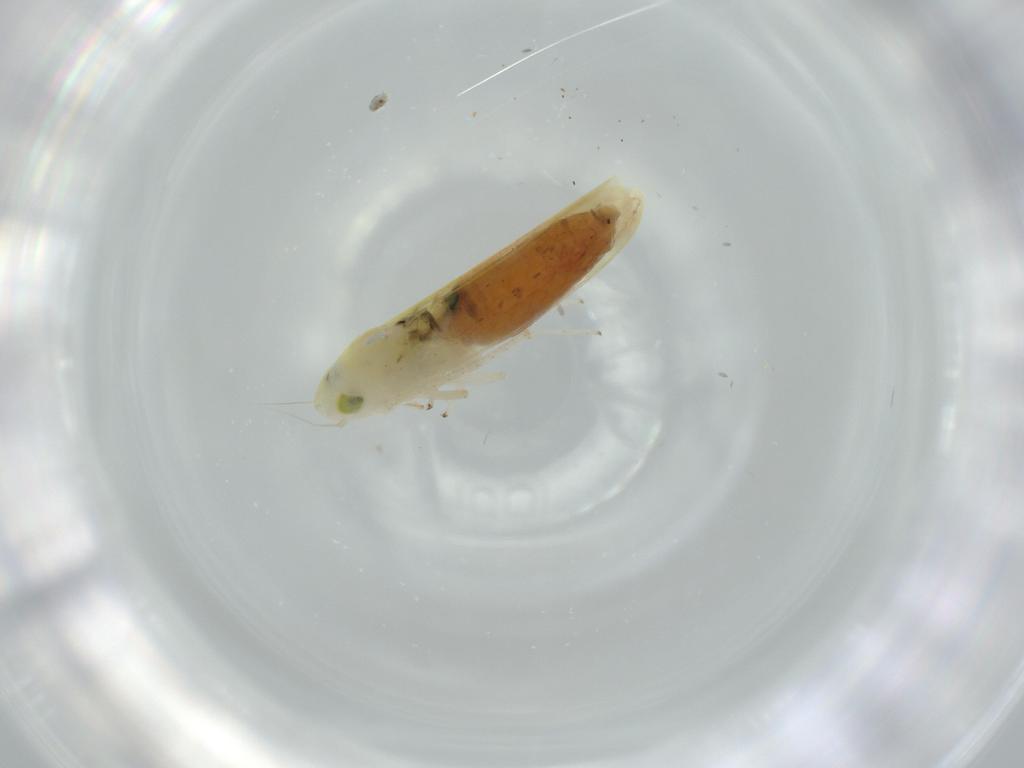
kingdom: Animalia
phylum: Arthropoda
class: Insecta
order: Hemiptera
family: Cicadellidae
